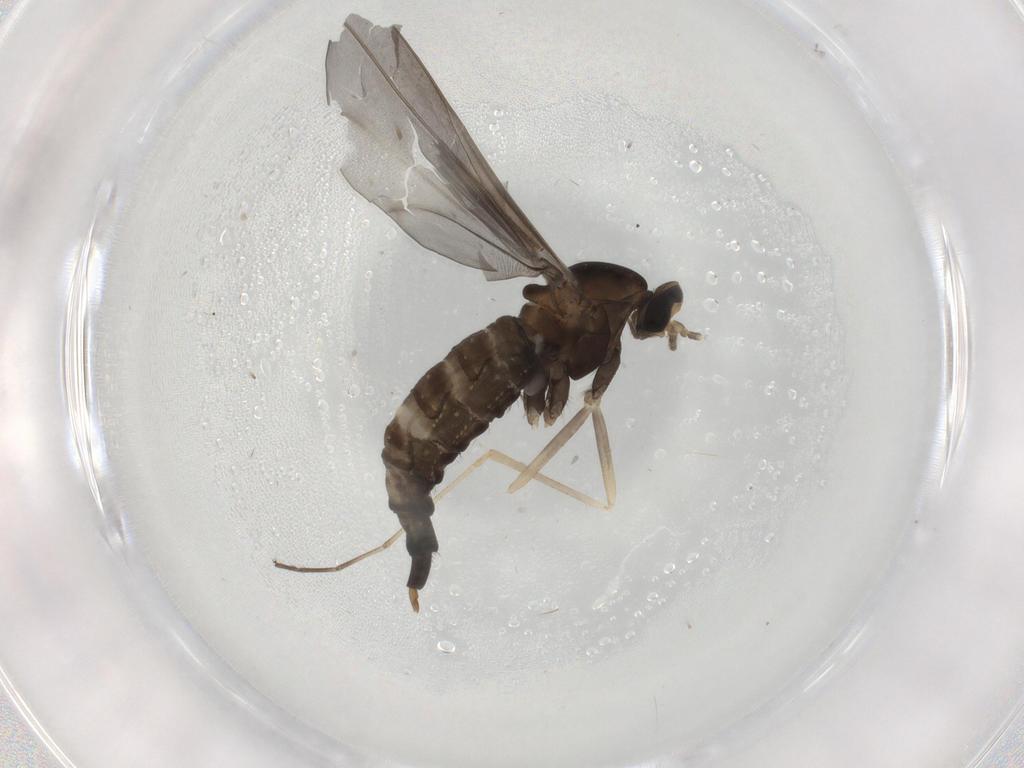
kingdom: Animalia
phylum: Arthropoda
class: Insecta
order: Diptera
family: Cecidomyiidae
